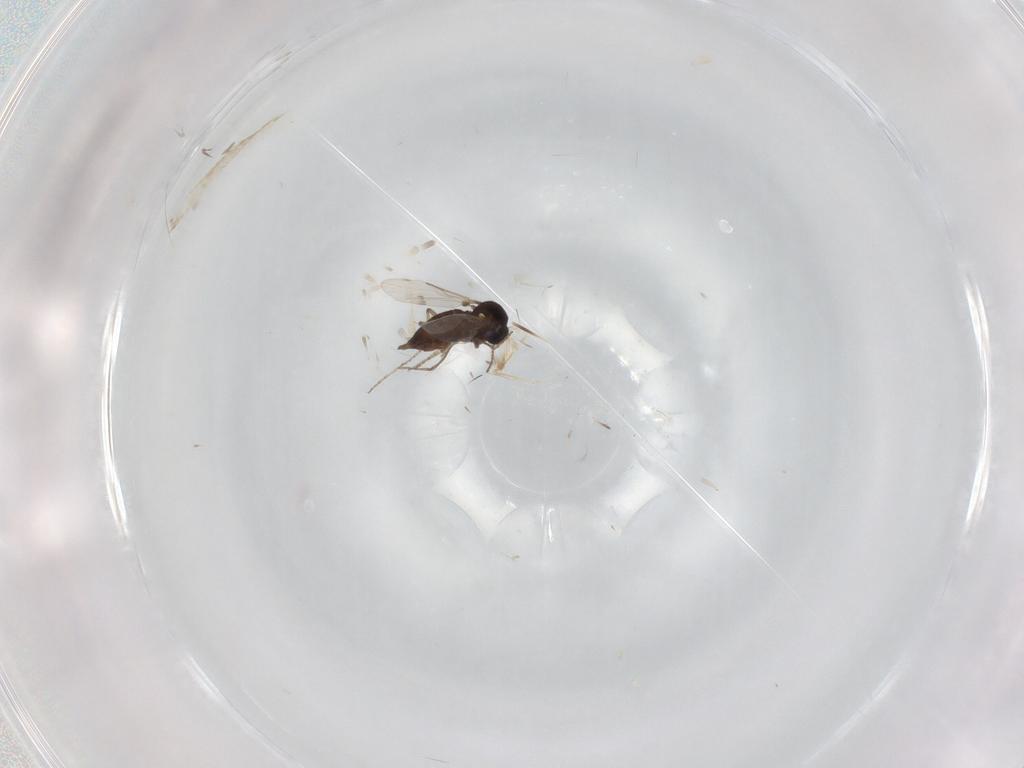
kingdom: Animalia
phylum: Arthropoda
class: Insecta
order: Diptera
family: Ceratopogonidae
